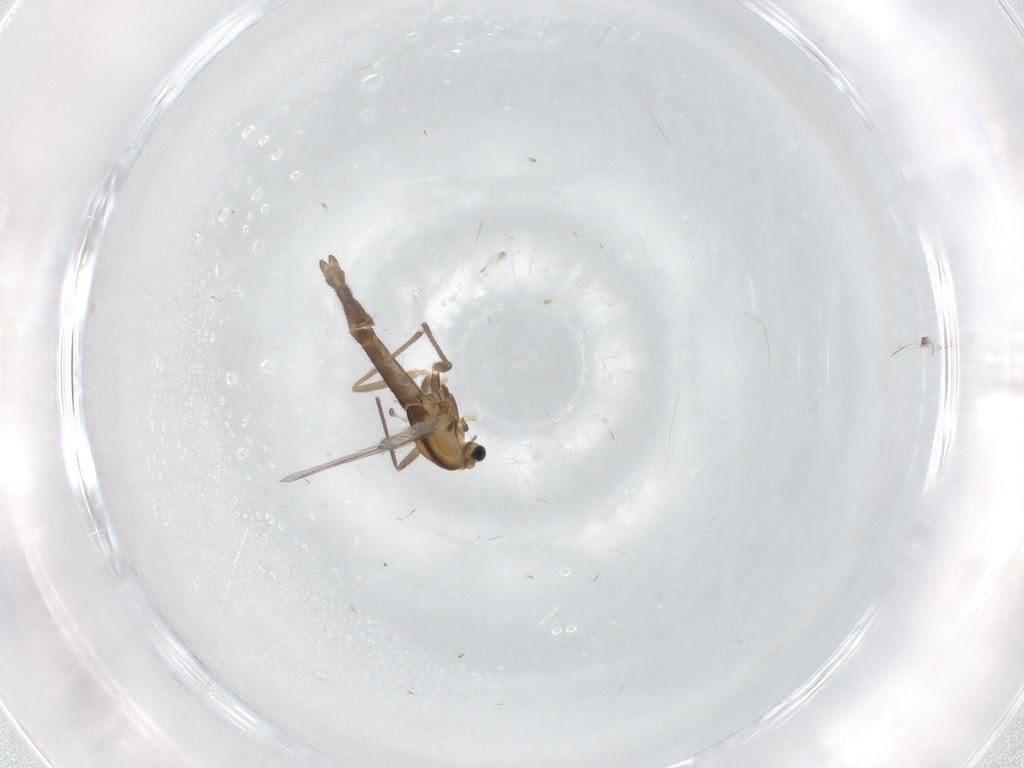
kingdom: Animalia
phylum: Arthropoda
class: Insecta
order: Diptera
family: Chironomidae
